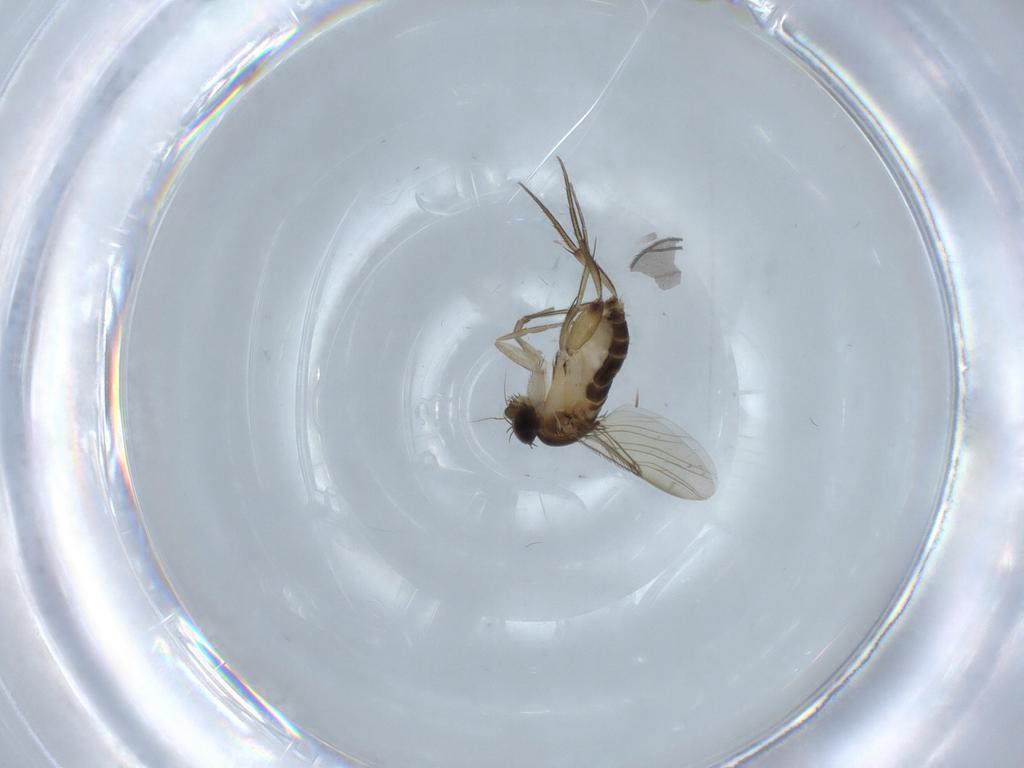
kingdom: Animalia
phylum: Arthropoda
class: Insecta
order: Diptera
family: Phoridae
